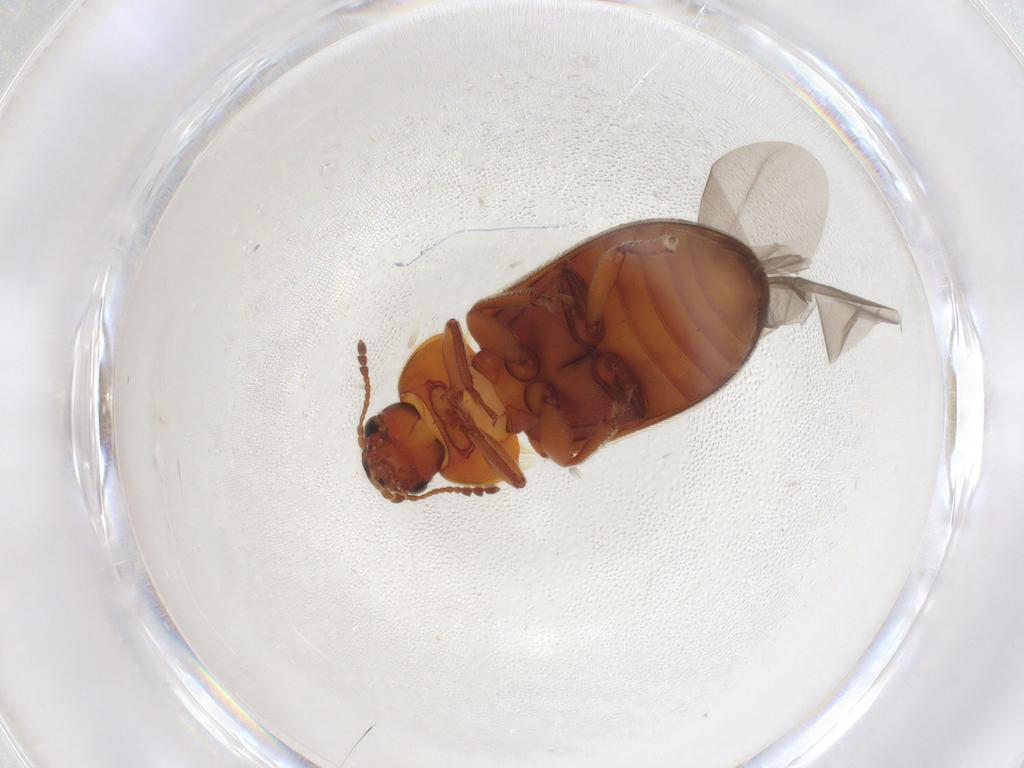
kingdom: Animalia
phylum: Arthropoda
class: Insecta
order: Coleoptera
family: Byturidae
